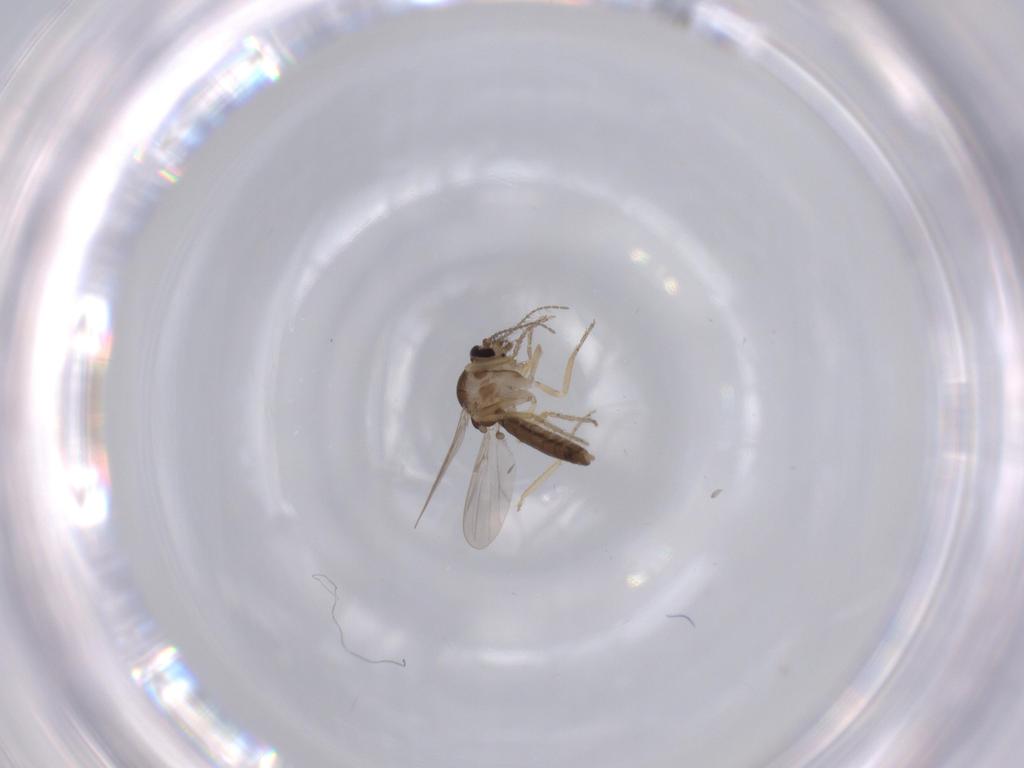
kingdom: Animalia
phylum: Arthropoda
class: Insecta
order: Diptera
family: Ceratopogonidae
